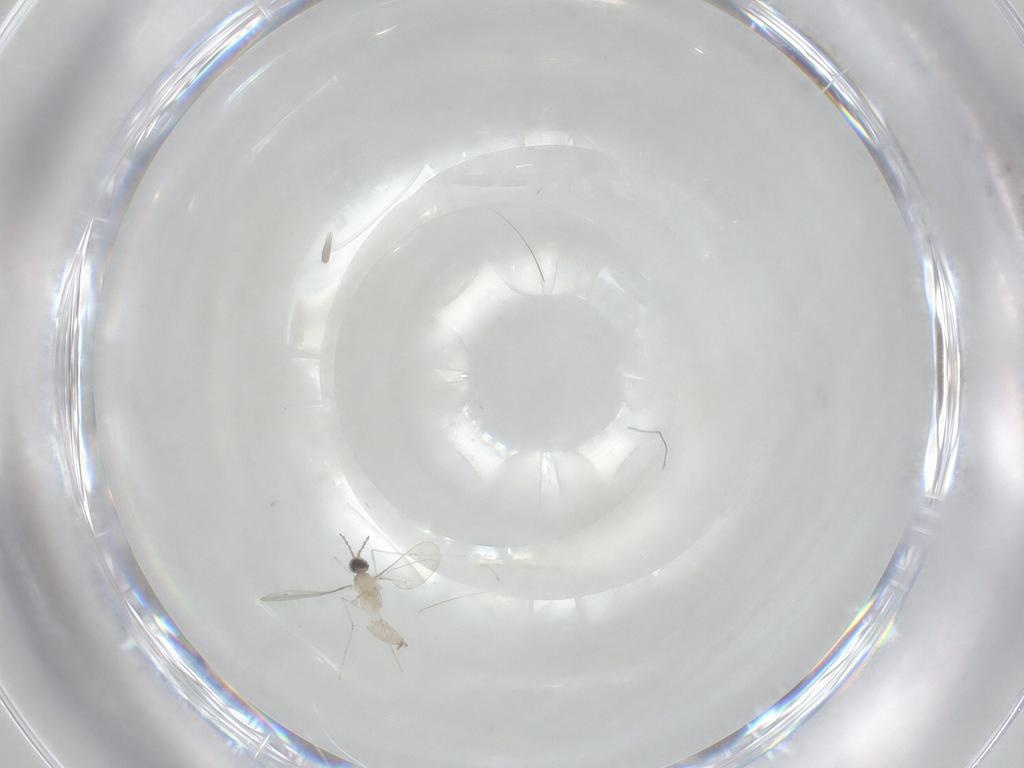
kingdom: Animalia
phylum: Arthropoda
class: Insecta
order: Diptera
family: Cecidomyiidae
